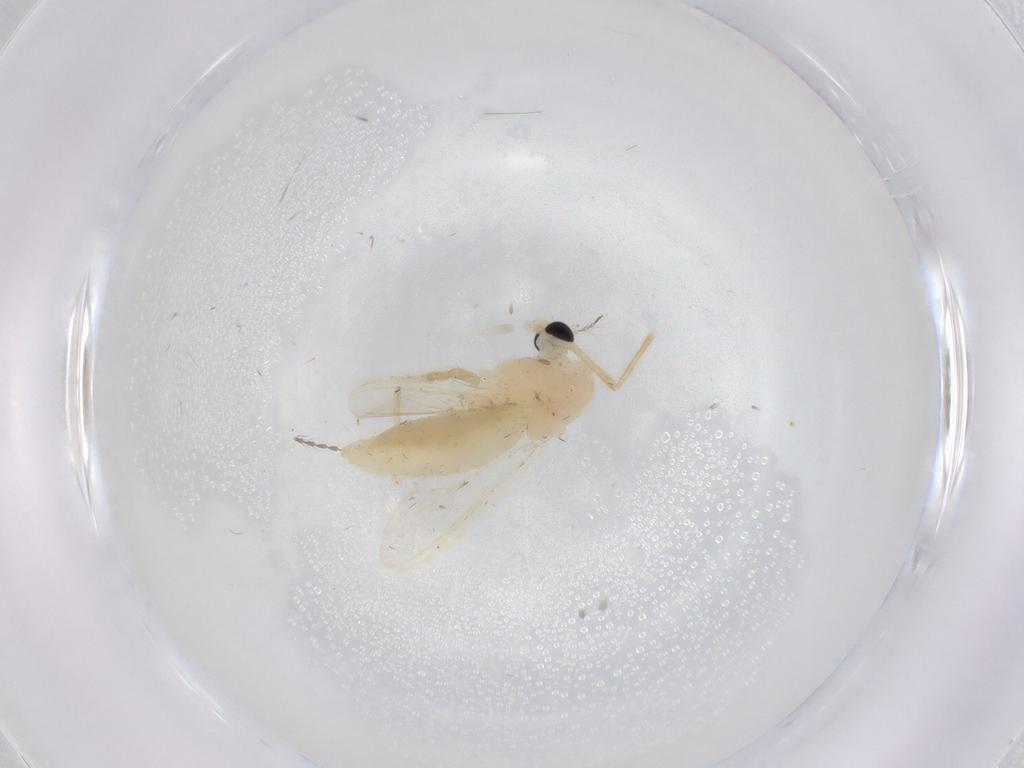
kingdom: Animalia
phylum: Arthropoda
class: Insecta
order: Diptera
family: Chironomidae
